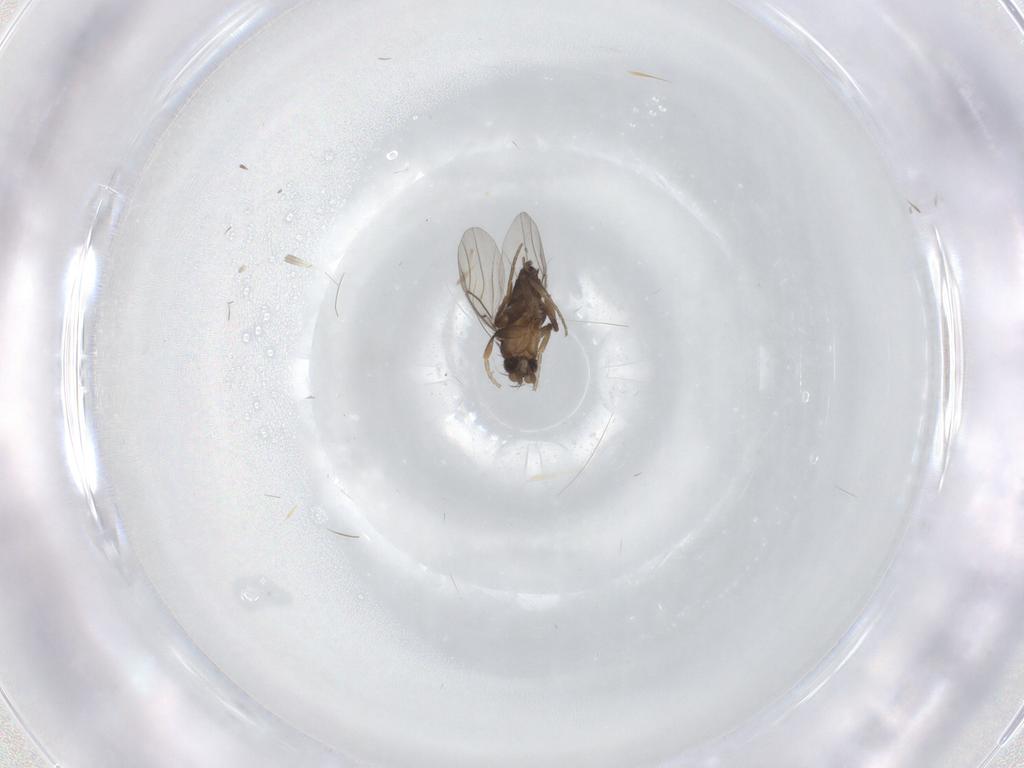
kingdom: Animalia
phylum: Arthropoda
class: Insecta
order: Diptera
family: Phoridae
